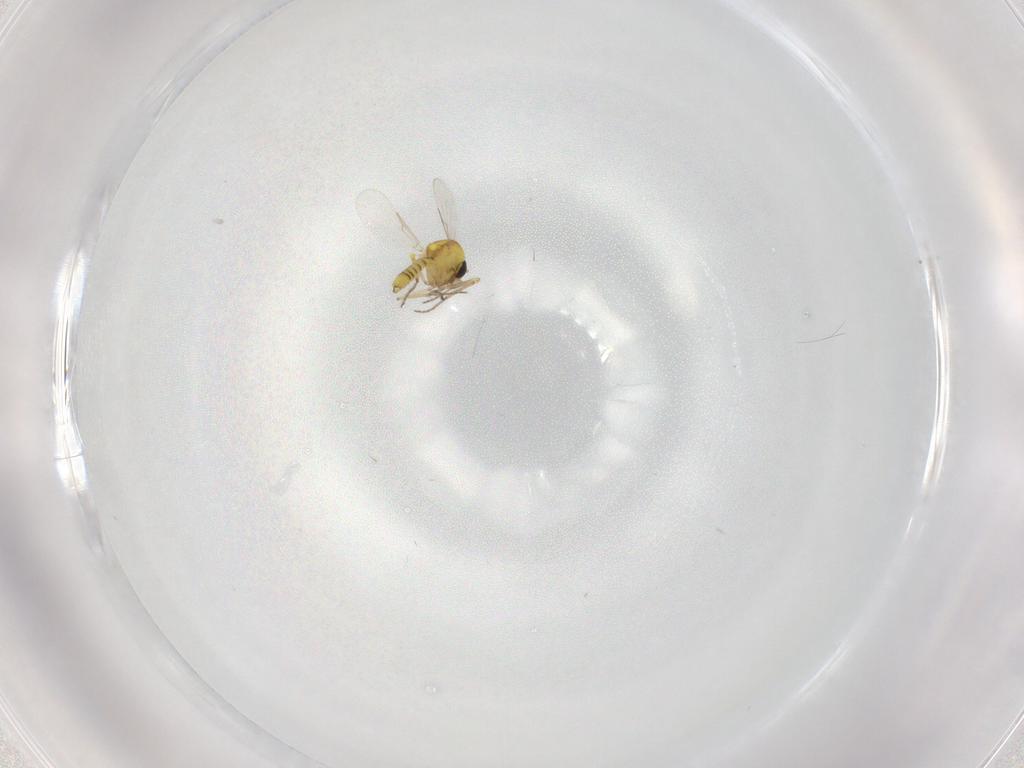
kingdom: Animalia
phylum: Arthropoda
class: Insecta
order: Diptera
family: Ceratopogonidae
